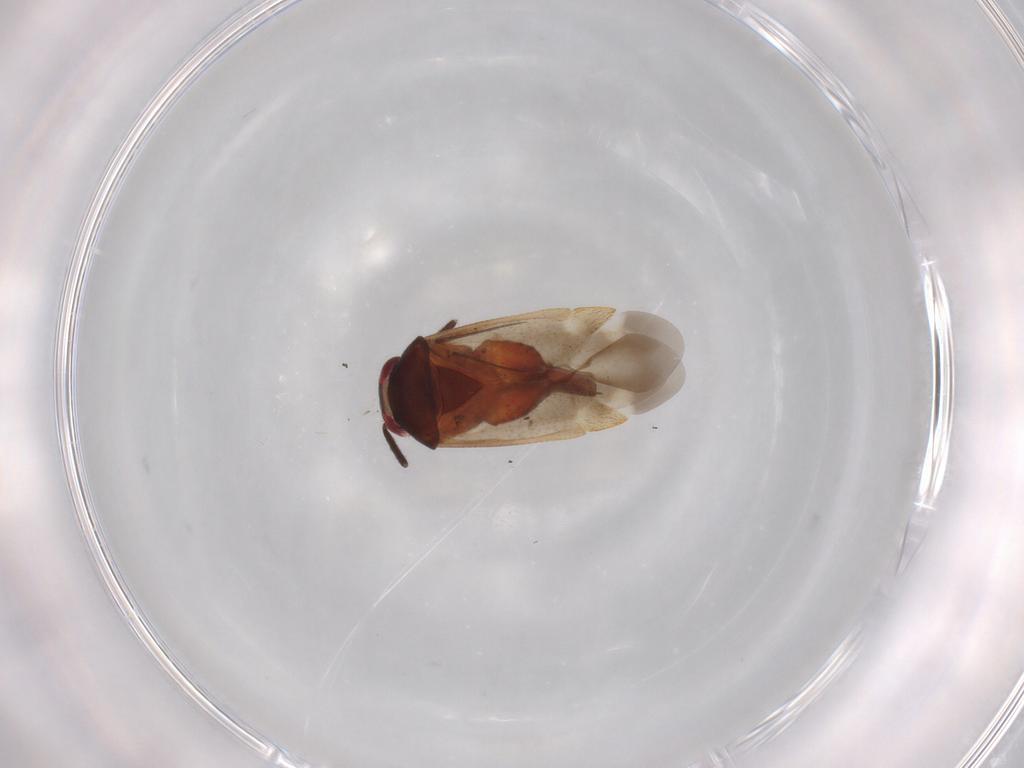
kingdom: Animalia
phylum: Arthropoda
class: Insecta
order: Hemiptera
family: Miridae
